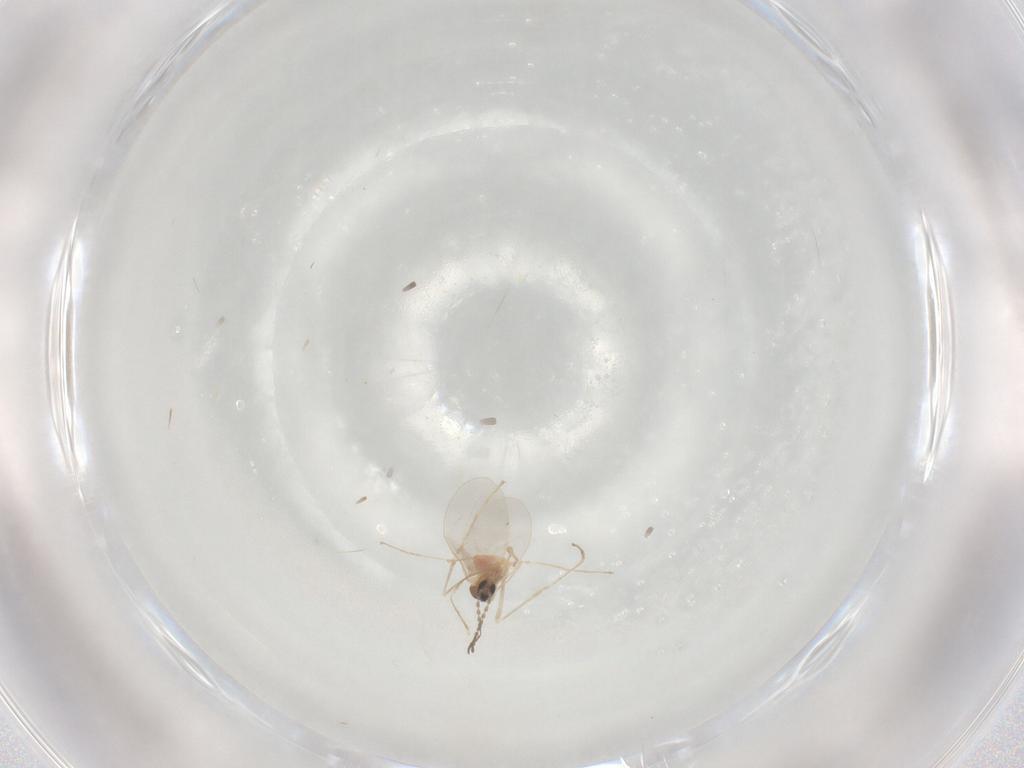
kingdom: Animalia
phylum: Arthropoda
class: Insecta
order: Diptera
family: Cecidomyiidae
